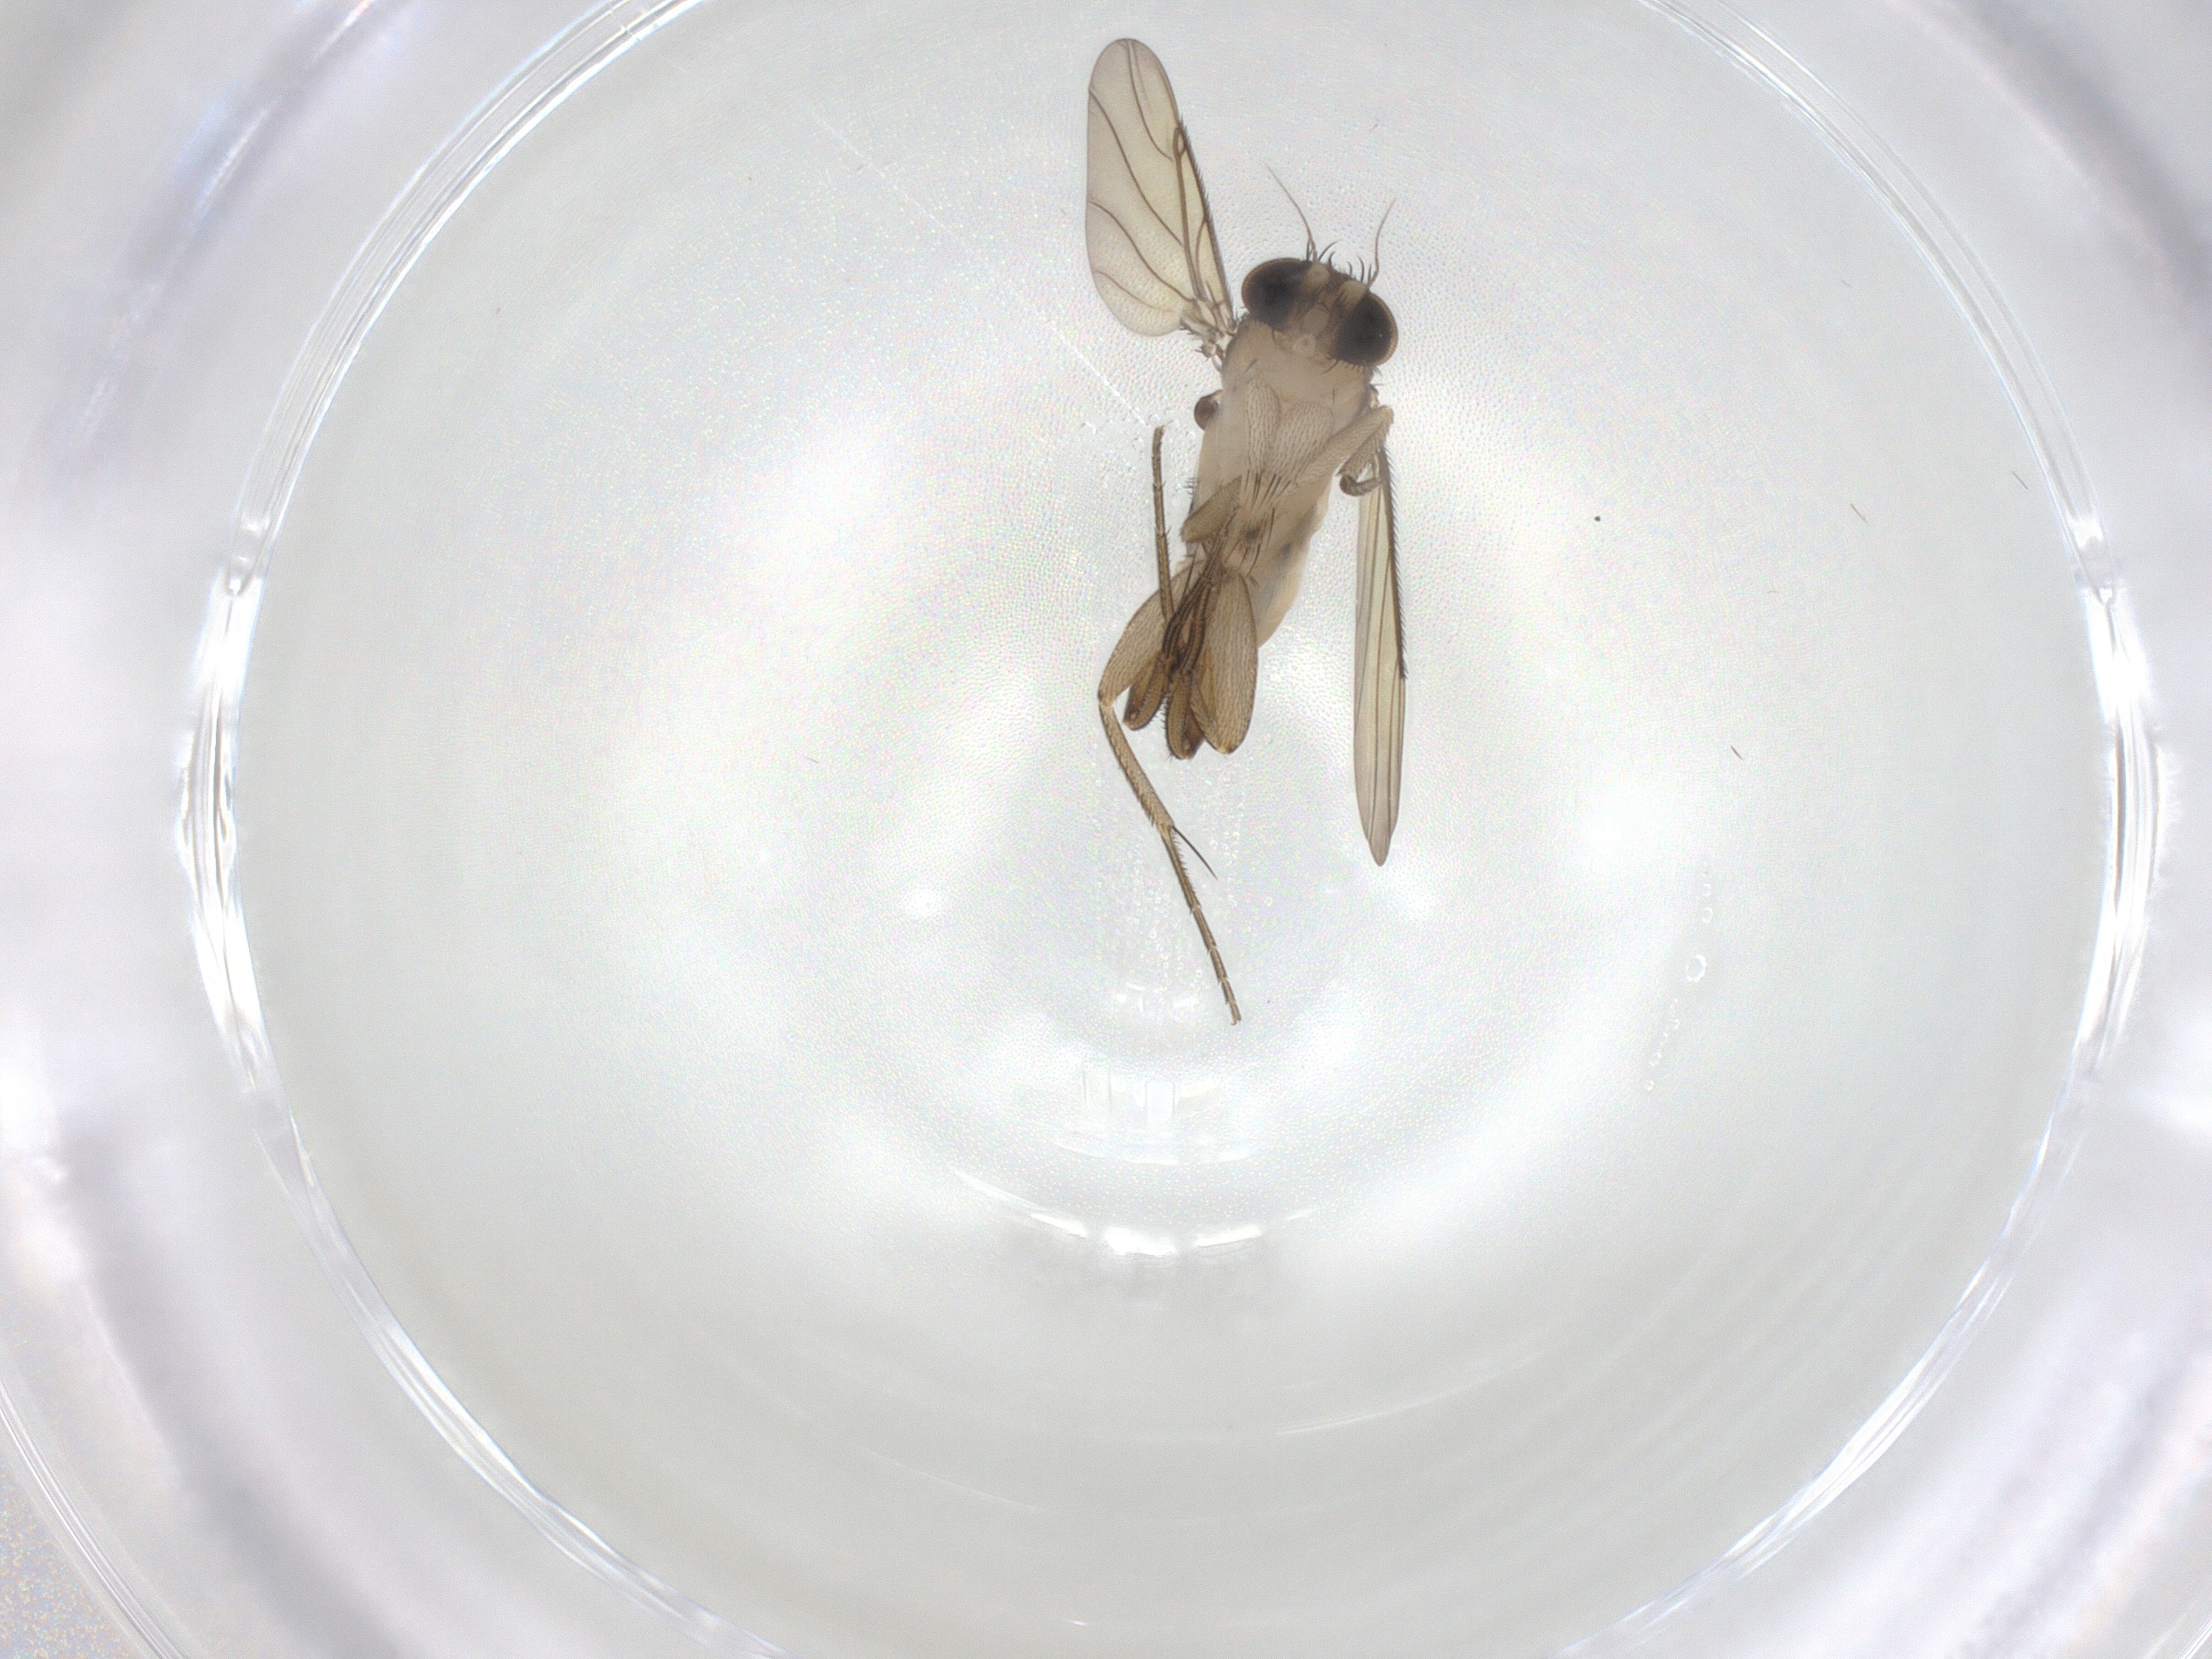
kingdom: Animalia
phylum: Arthropoda
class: Insecta
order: Diptera
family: Phoridae
